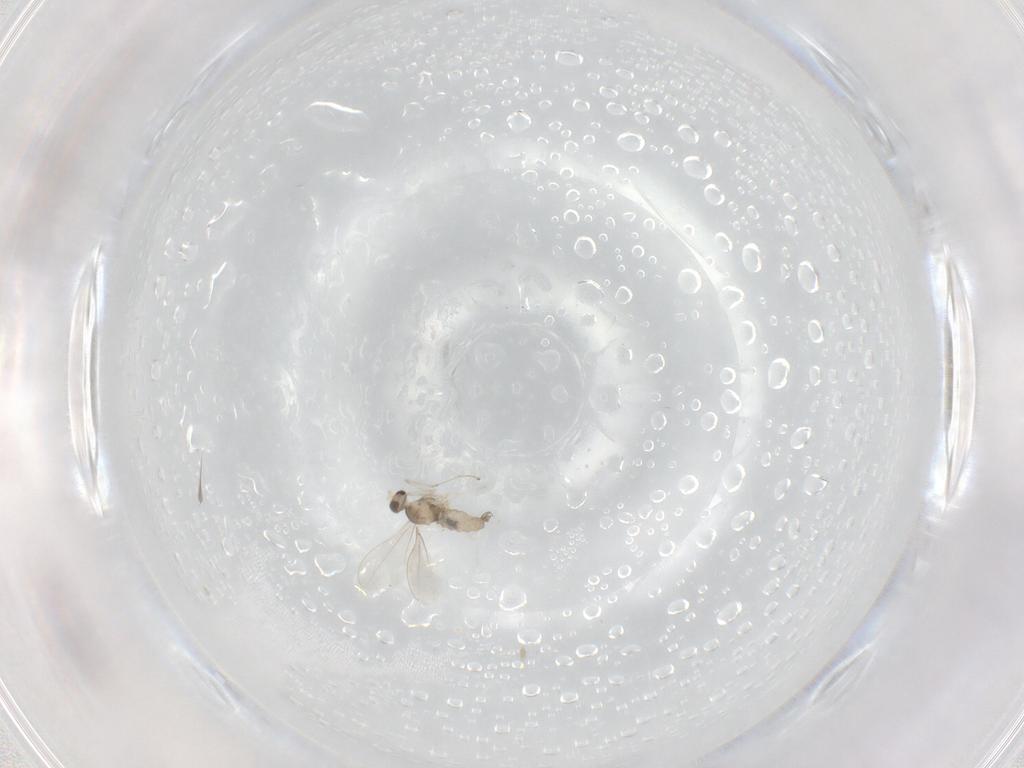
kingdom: Animalia
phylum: Arthropoda
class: Insecta
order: Diptera
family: Cecidomyiidae
